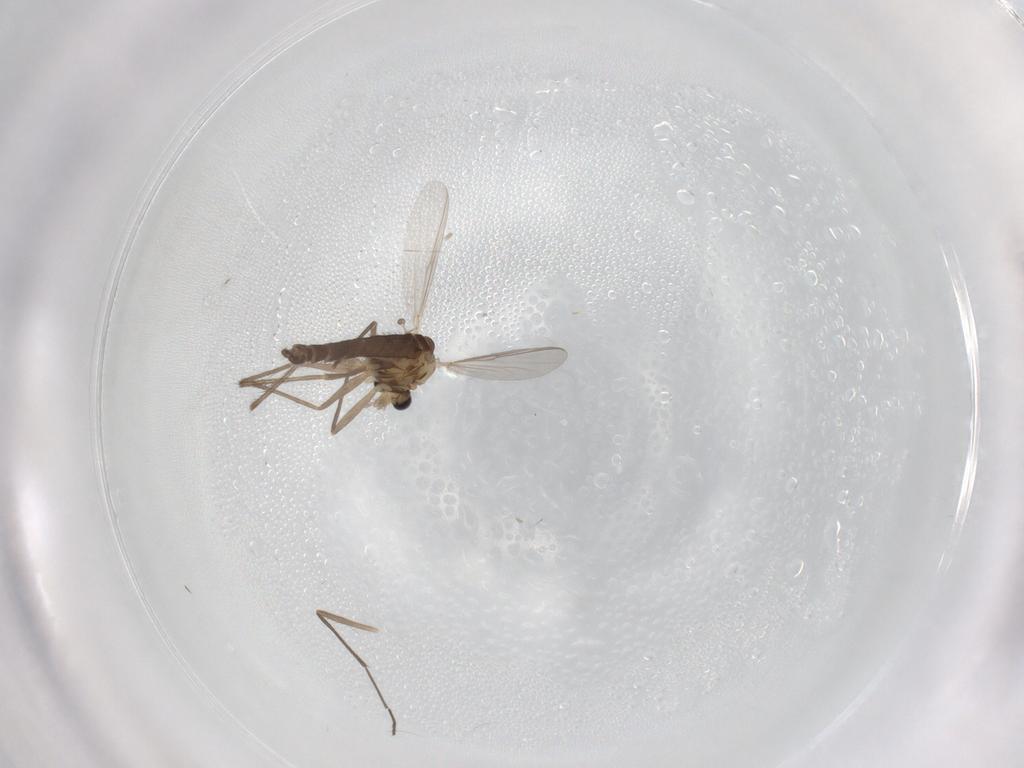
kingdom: Animalia
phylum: Arthropoda
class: Insecta
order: Diptera
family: Chironomidae
